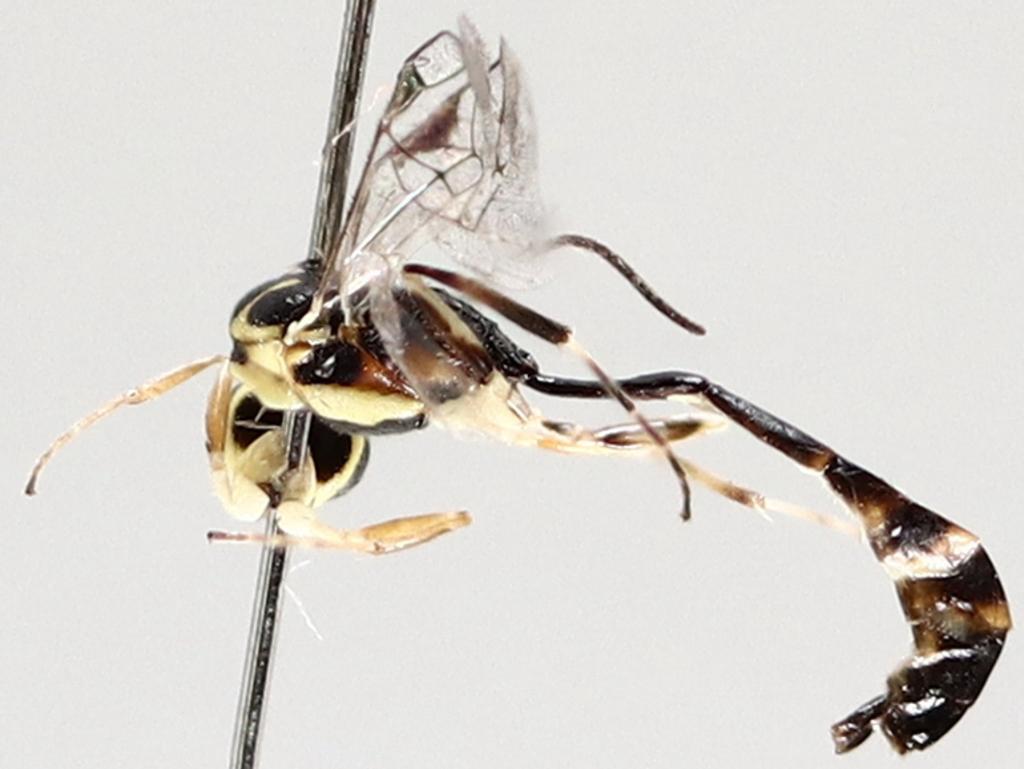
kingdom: Animalia
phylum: Arthropoda
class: Insecta
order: Diptera
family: Cecidomyiidae
